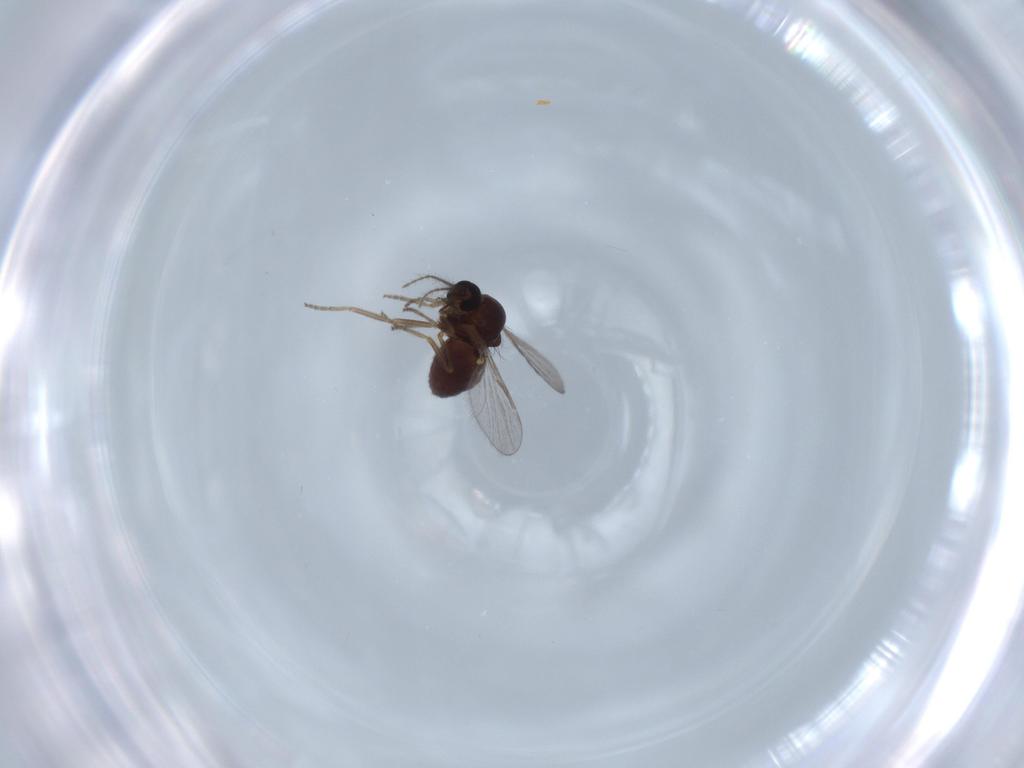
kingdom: Animalia
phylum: Arthropoda
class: Insecta
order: Diptera
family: Ceratopogonidae
